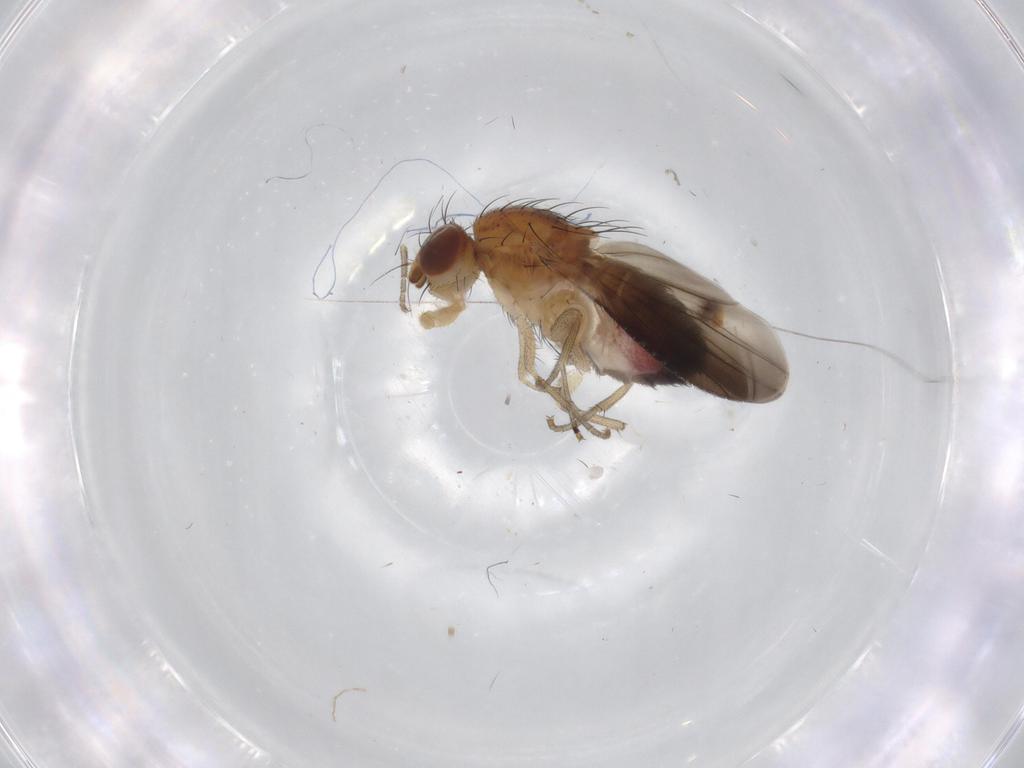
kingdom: Animalia
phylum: Arthropoda
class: Insecta
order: Diptera
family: Heleomyzidae
